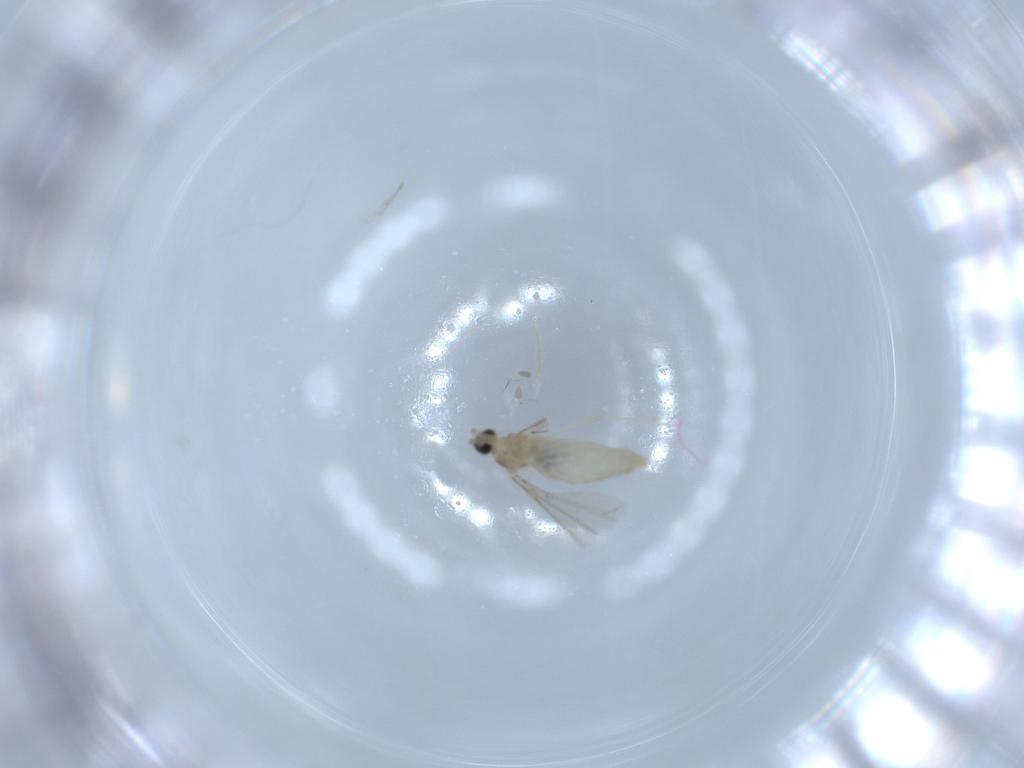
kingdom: Animalia
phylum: Arthropoda
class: Insecta
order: Diptera
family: Cecidomyiidae
